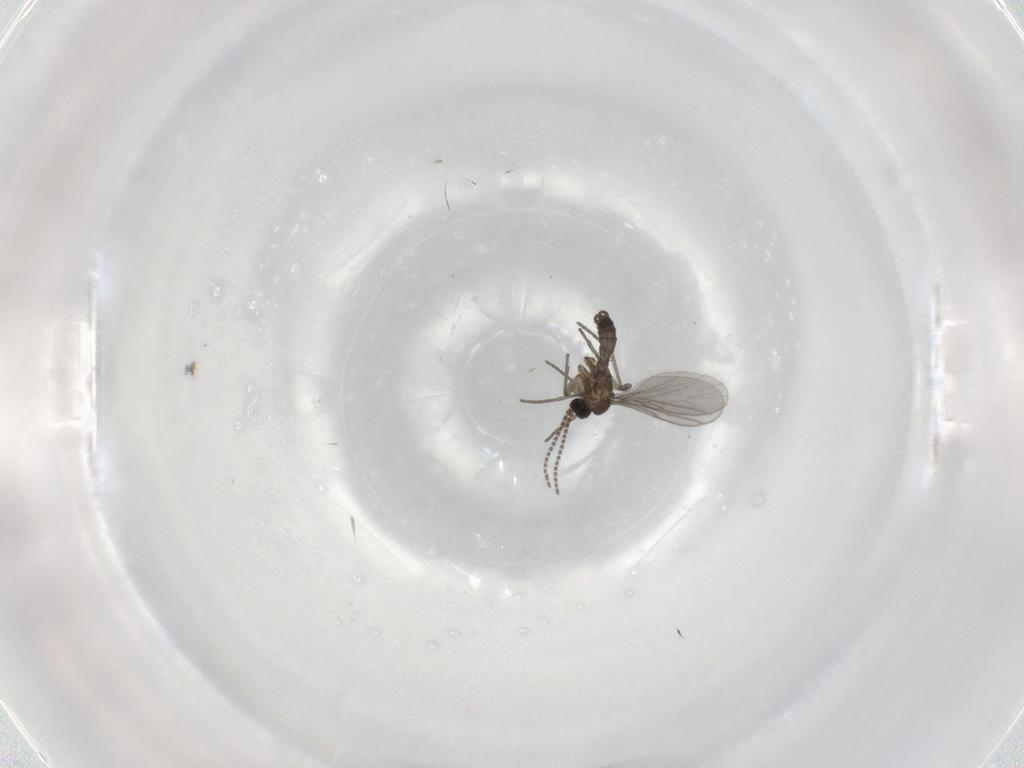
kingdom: Animalia
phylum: Arthropoda
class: Insecta
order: Diptera
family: Sciaridae
